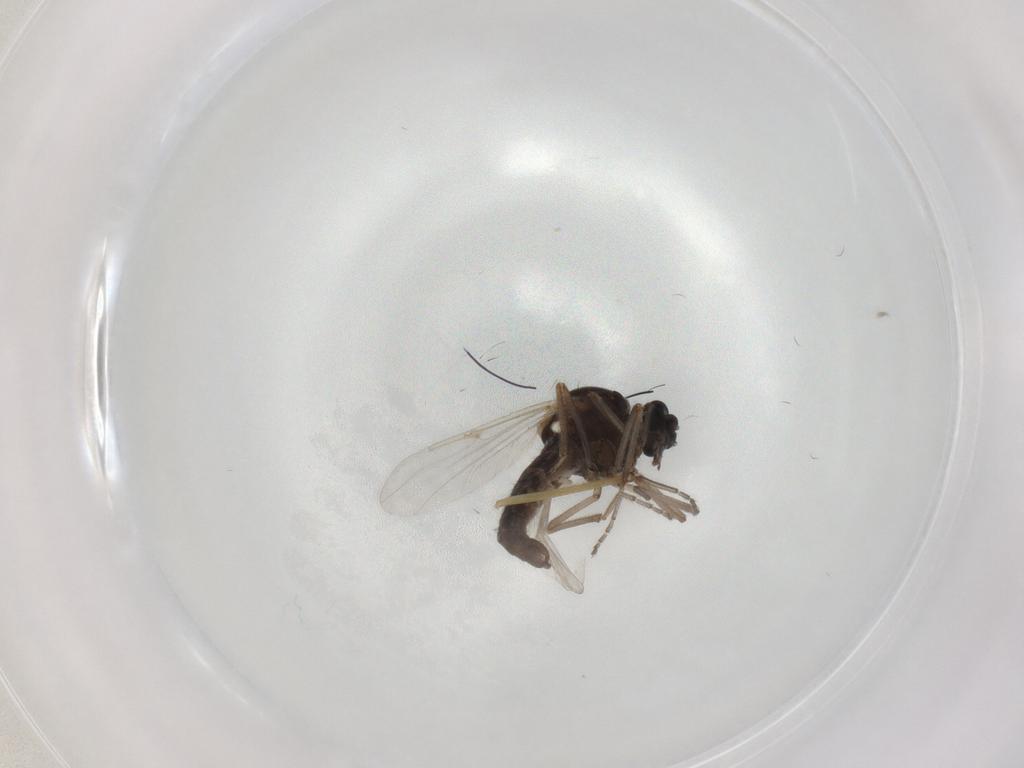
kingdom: Animalia
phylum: Arthropoda
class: Insecta
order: Diptera
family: Ceratopogonidae
